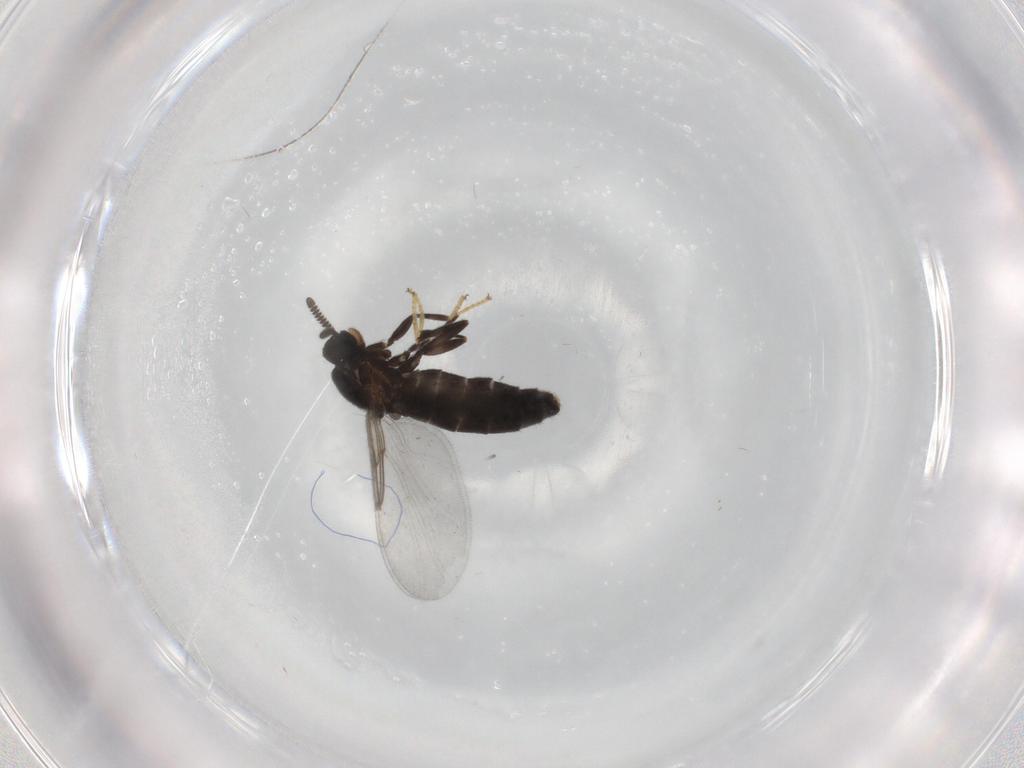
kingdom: Animalia
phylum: Arthropoda
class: Insecta
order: Diptera
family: Scatopsidae
